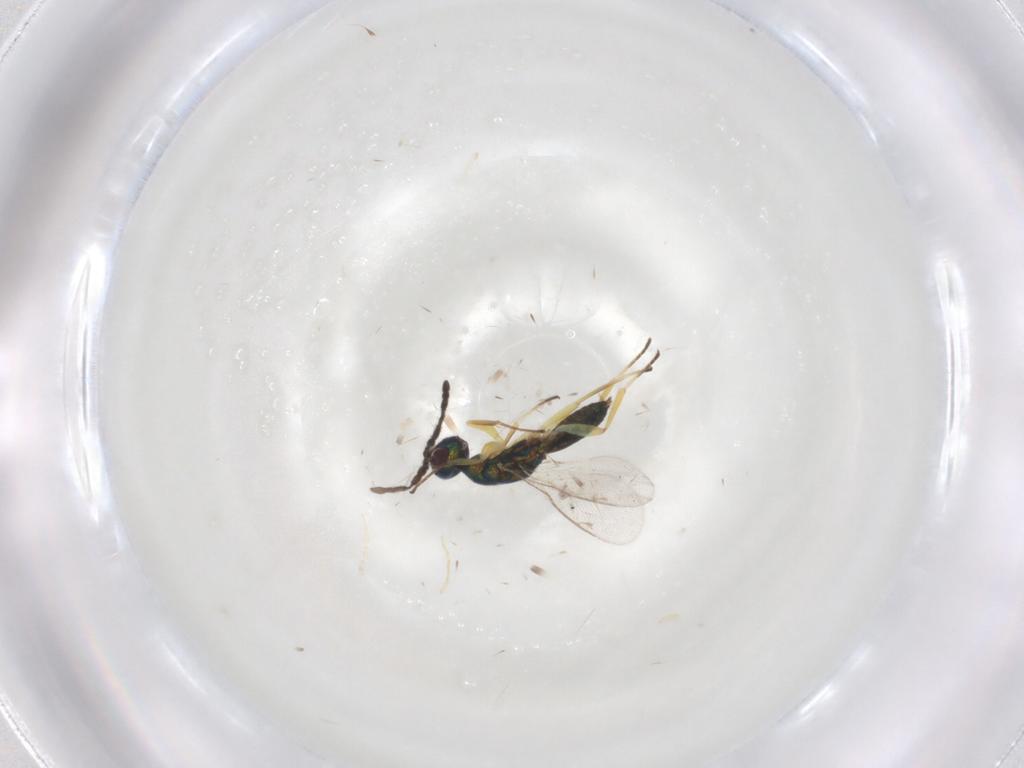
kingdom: Animalia
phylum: Arthropoda
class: Insecta
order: Hymenoptera
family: Eupelmidae
